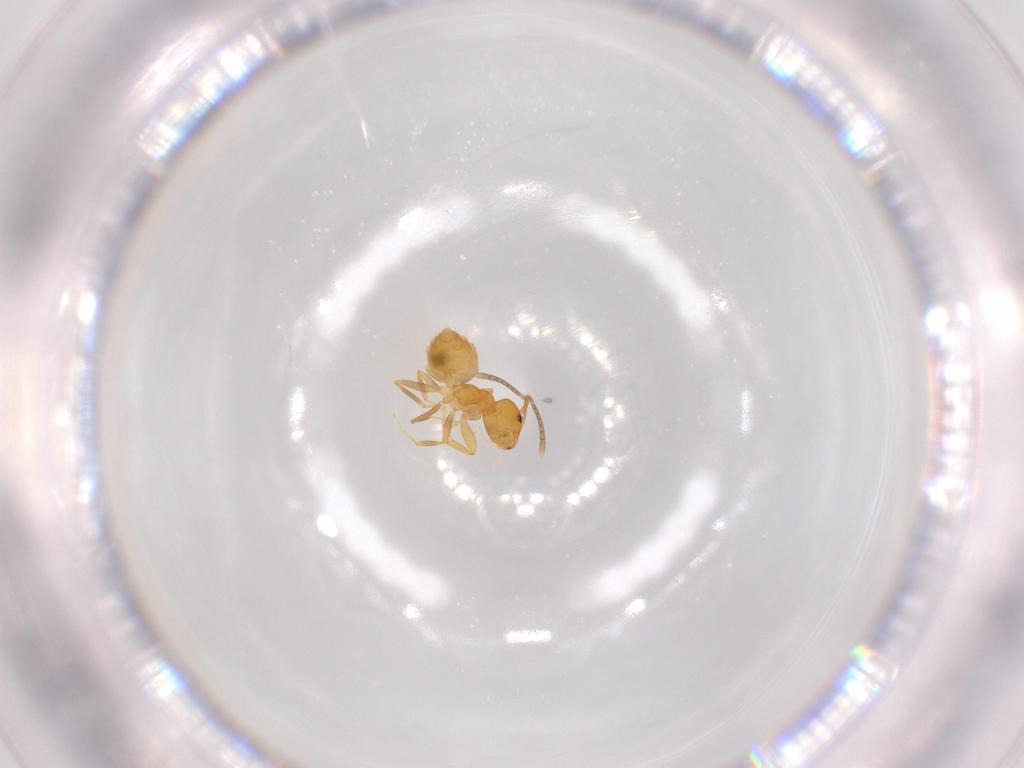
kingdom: Animalia
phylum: Arthropoda
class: Insecta
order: Hymenoptera
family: Formicidae
